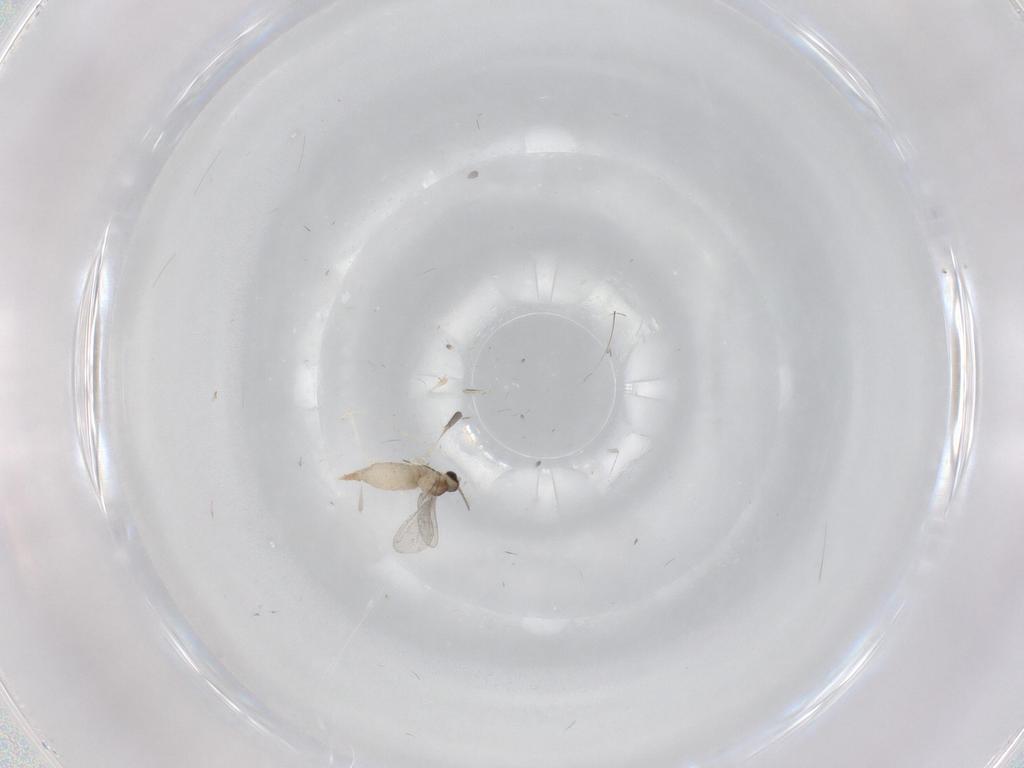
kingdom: Animalia
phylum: Arthropoda
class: Insecta
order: Diptera
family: Sciaridae
